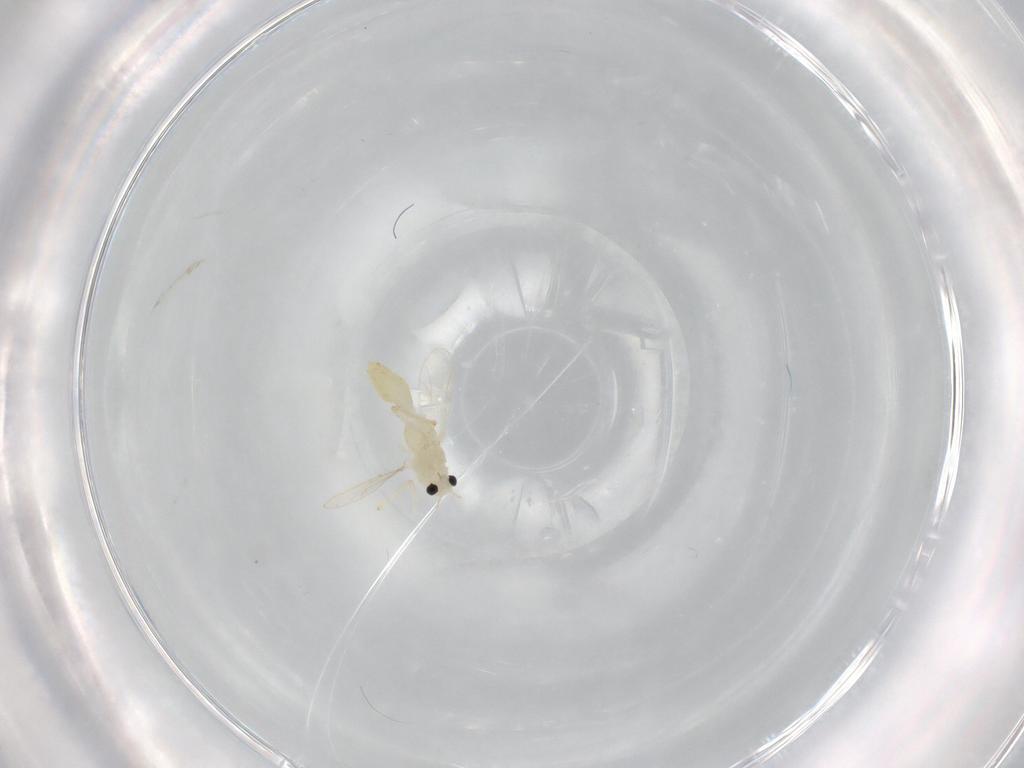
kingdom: Animalia
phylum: Arthropoda
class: Insecta
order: Diptera
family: Chironomidae
